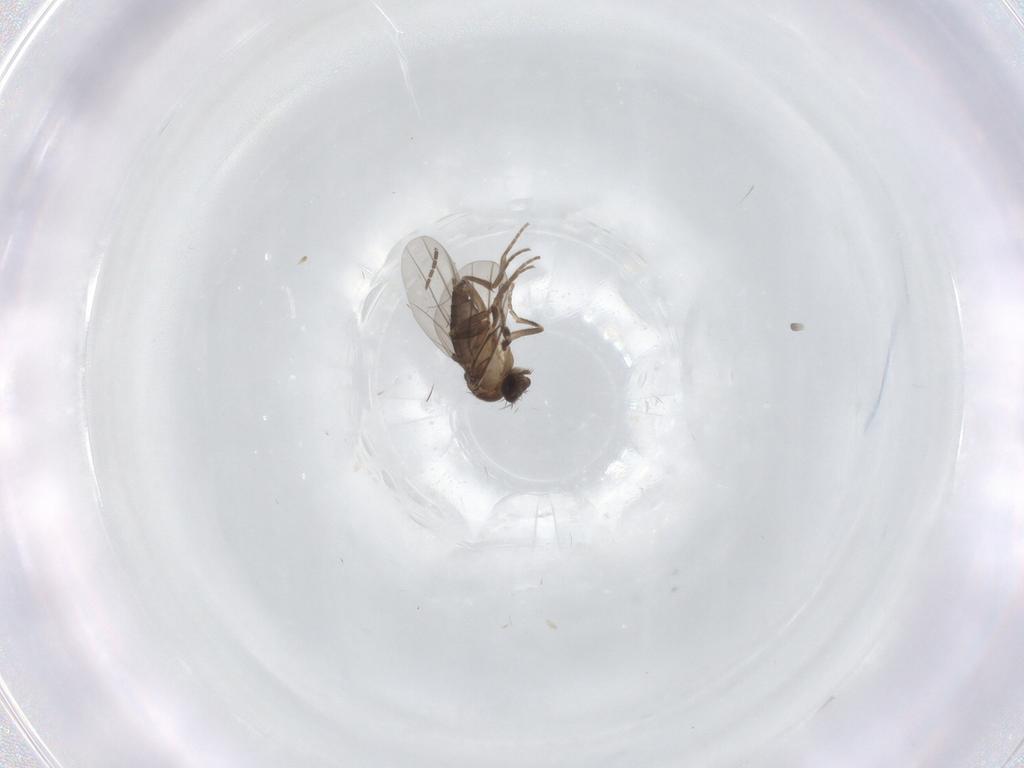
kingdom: Animalia
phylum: Arthropoda
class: Insecta
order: Diptera
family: Sciaridae
